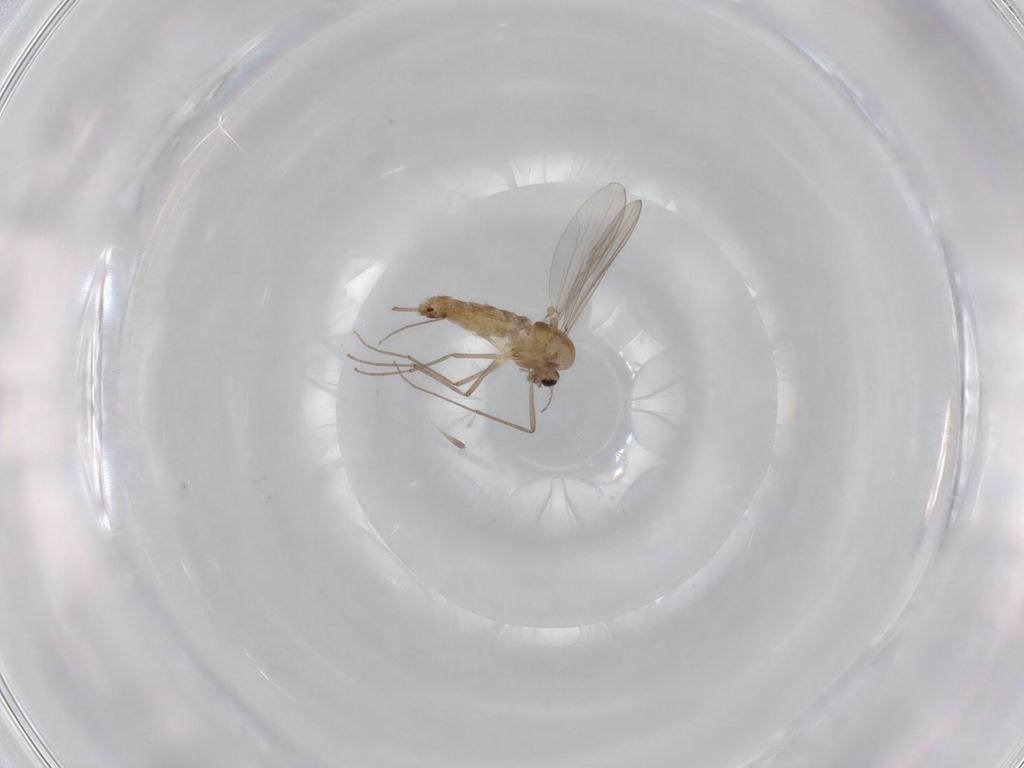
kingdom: Animalia
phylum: Arthropoda
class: Insecta
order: Diptera
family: Chironomidae
